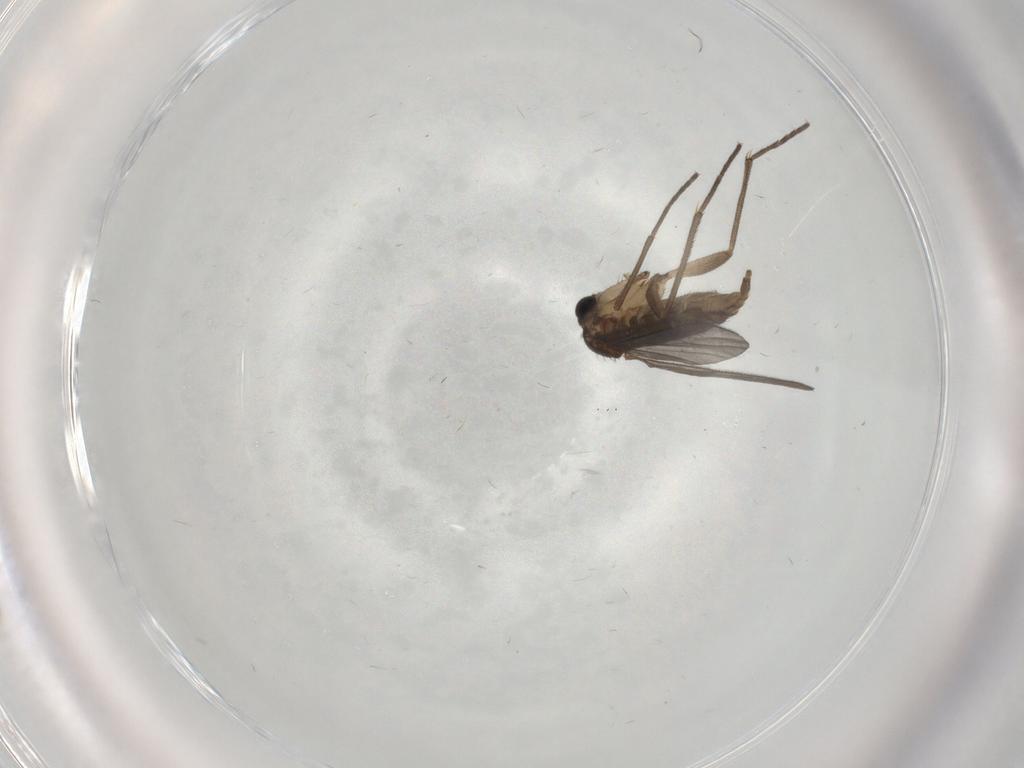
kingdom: Animalia
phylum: Arthropoda
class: Insecta
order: Diptera
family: Sciaridae
